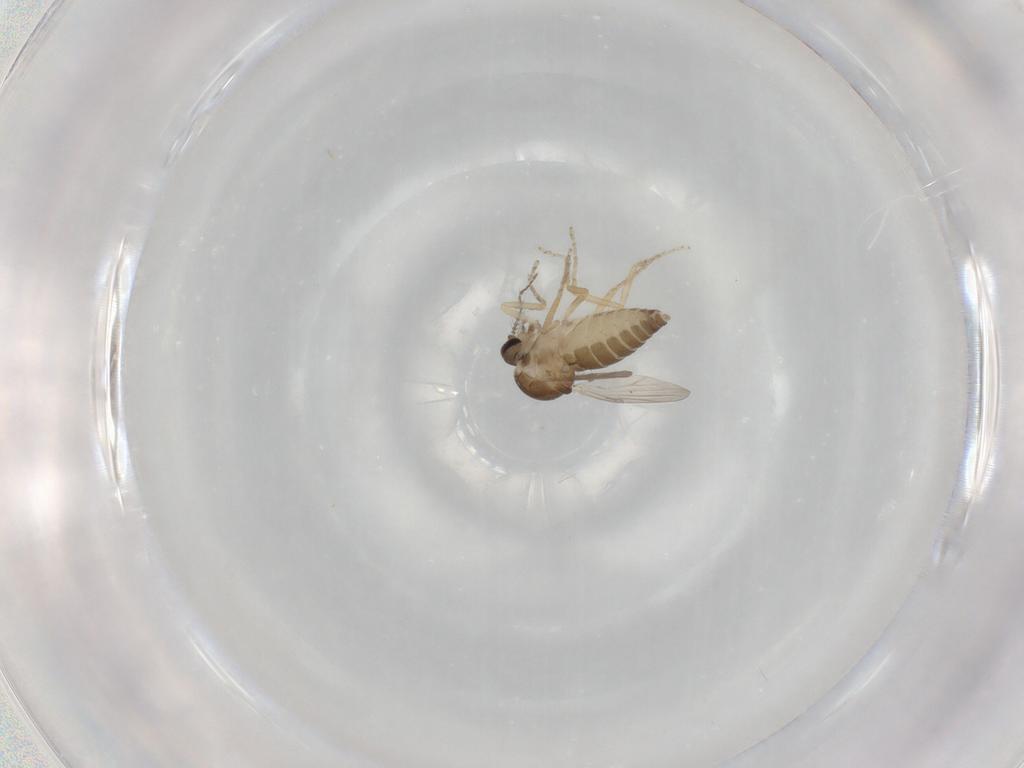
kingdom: Animalia
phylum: Arthropoda
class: Insecta
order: Diptera
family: Ceratopogonidae
